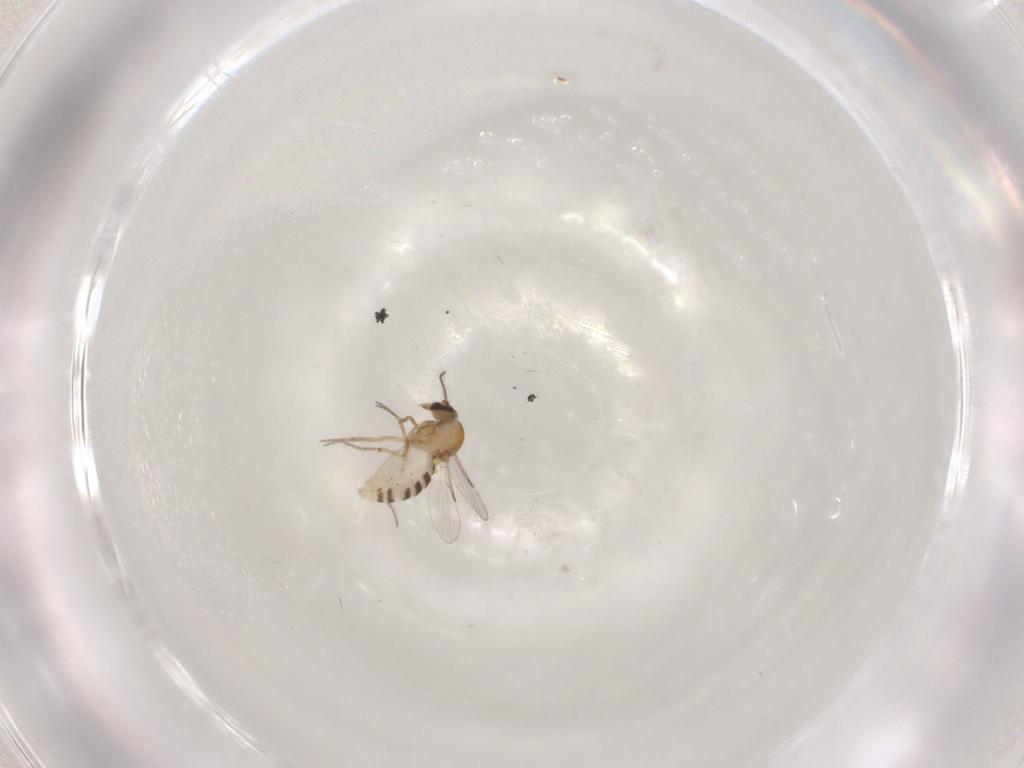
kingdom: Animalia
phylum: Arthropoda
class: Insecta
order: Diptera
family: Ceratopogonidae
